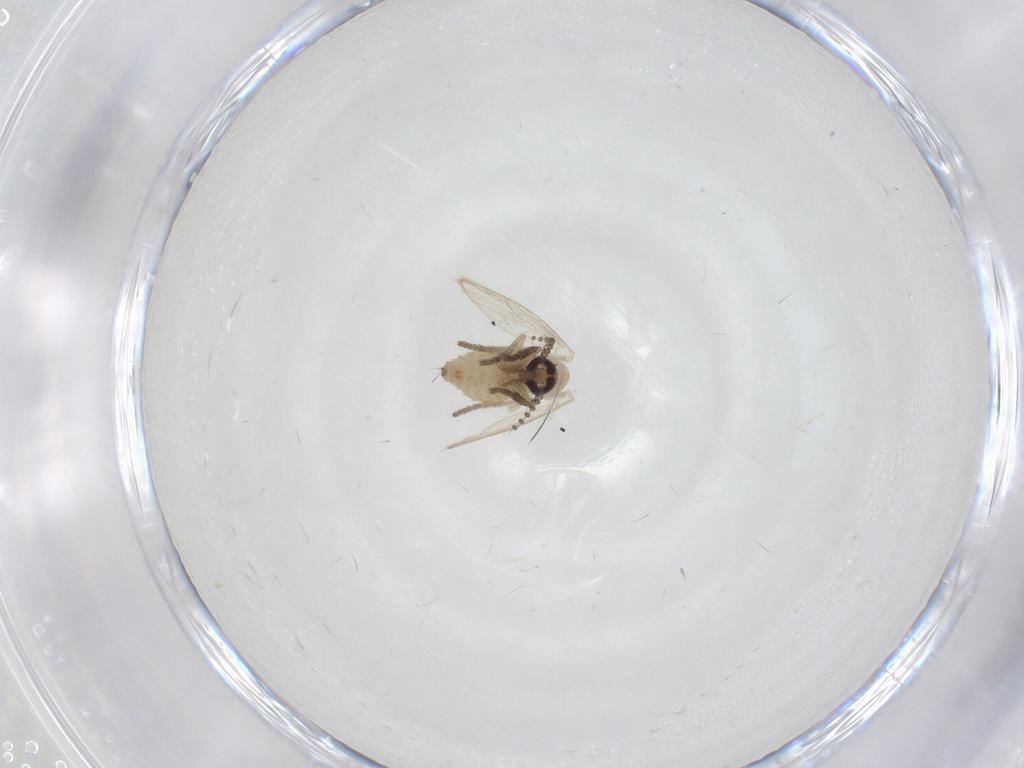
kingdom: Animalia
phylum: Arthropoda
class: Insecta
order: Diptera
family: Psychodidae
